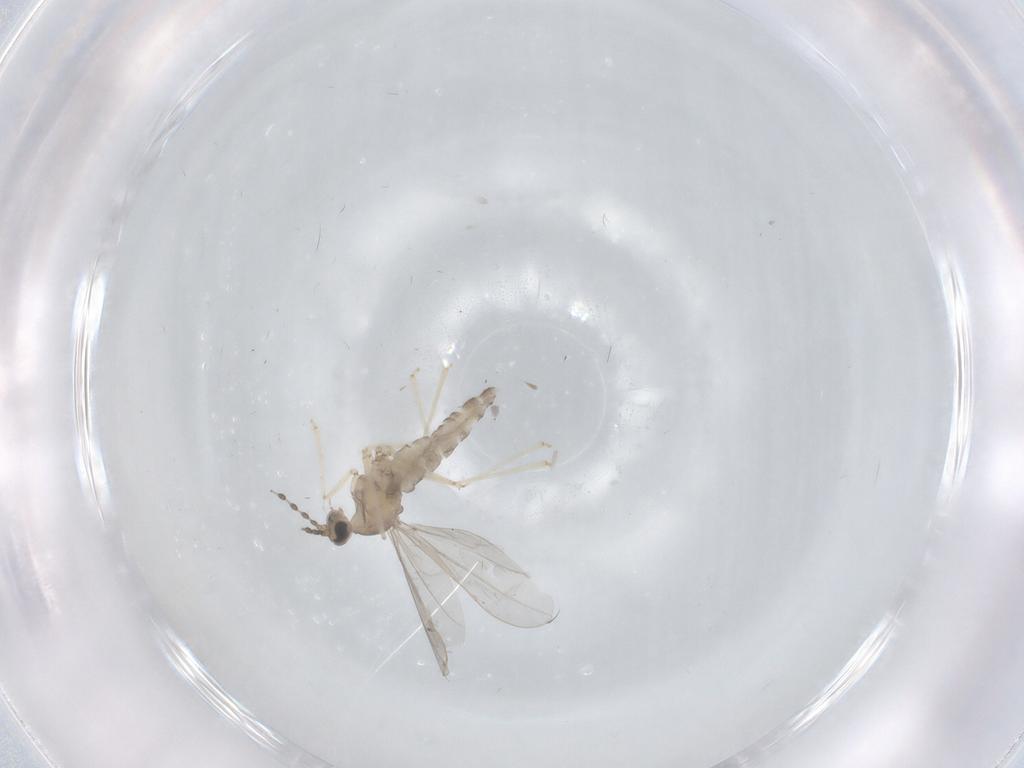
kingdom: Animalia
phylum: Arthropoda
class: Insecta
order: Diptera
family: Cecidomyiidae
